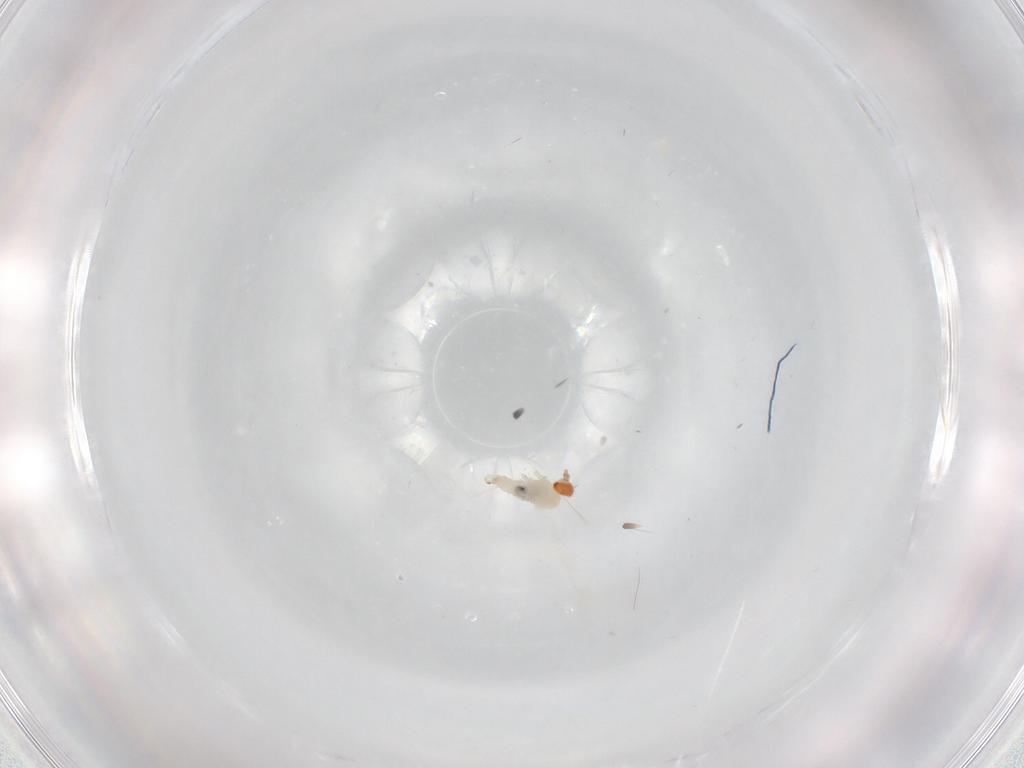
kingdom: Animalia
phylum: Arthropoda
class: Insecta
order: Diptera
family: Cecidomyiidae
